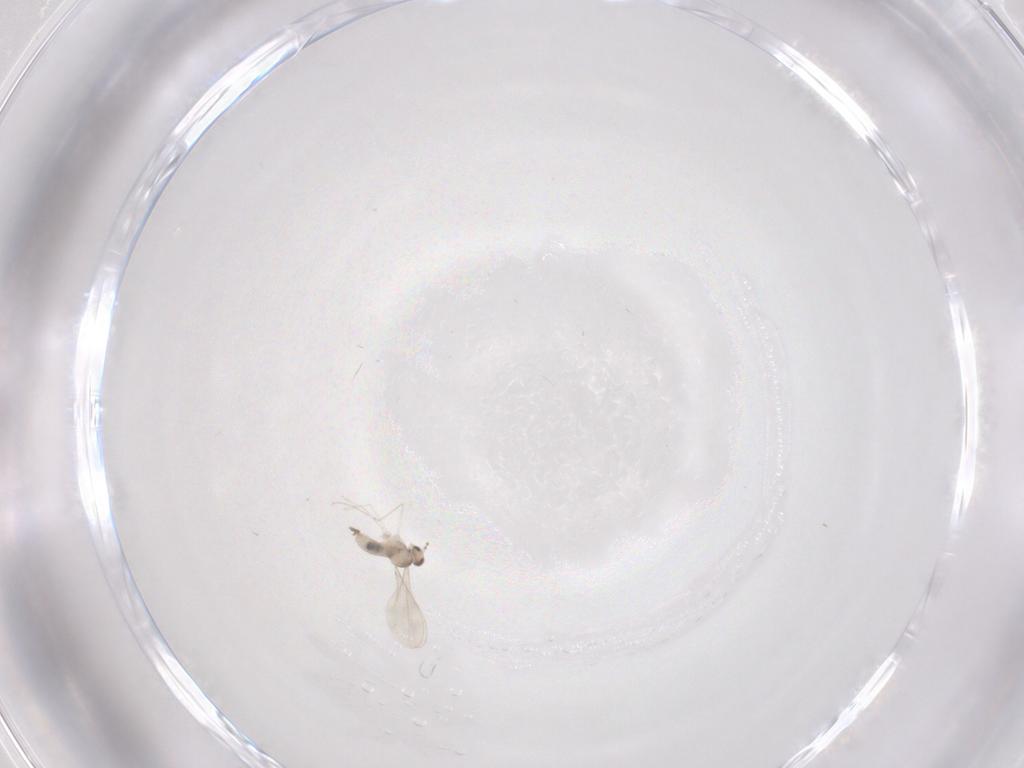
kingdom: Animalia
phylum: Arthropoda
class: Insecta
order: Diptera
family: Cecidomyiidae
